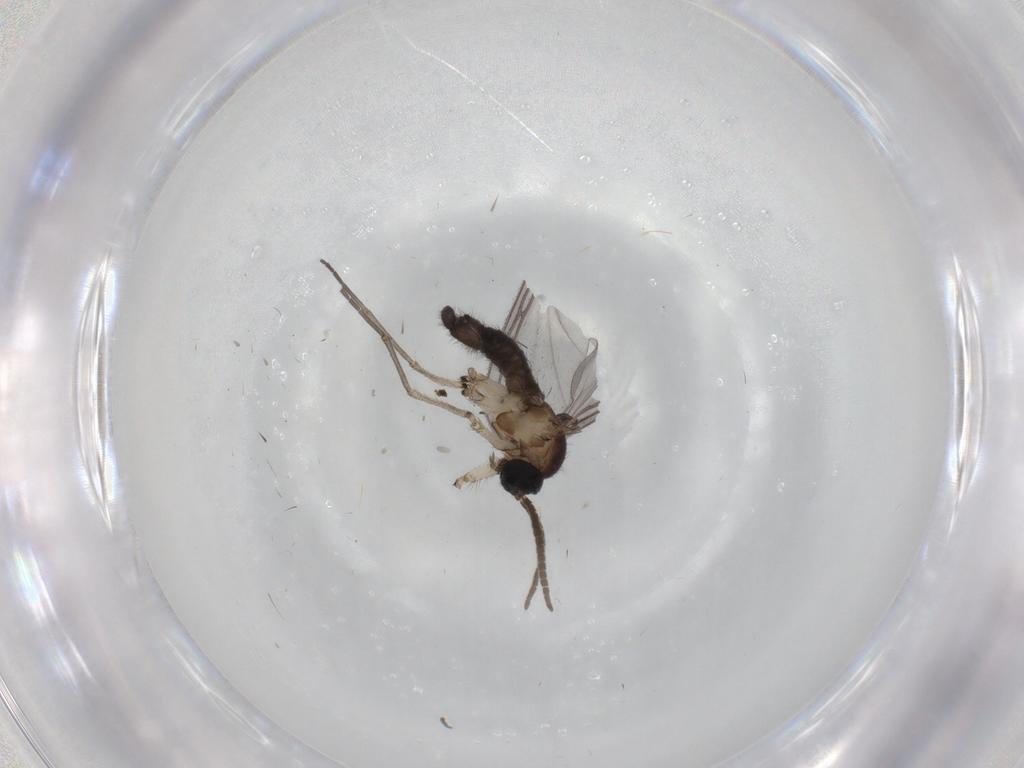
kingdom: Animalia
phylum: Arthropoda
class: Insecta
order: Diptera
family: Sciaridae
